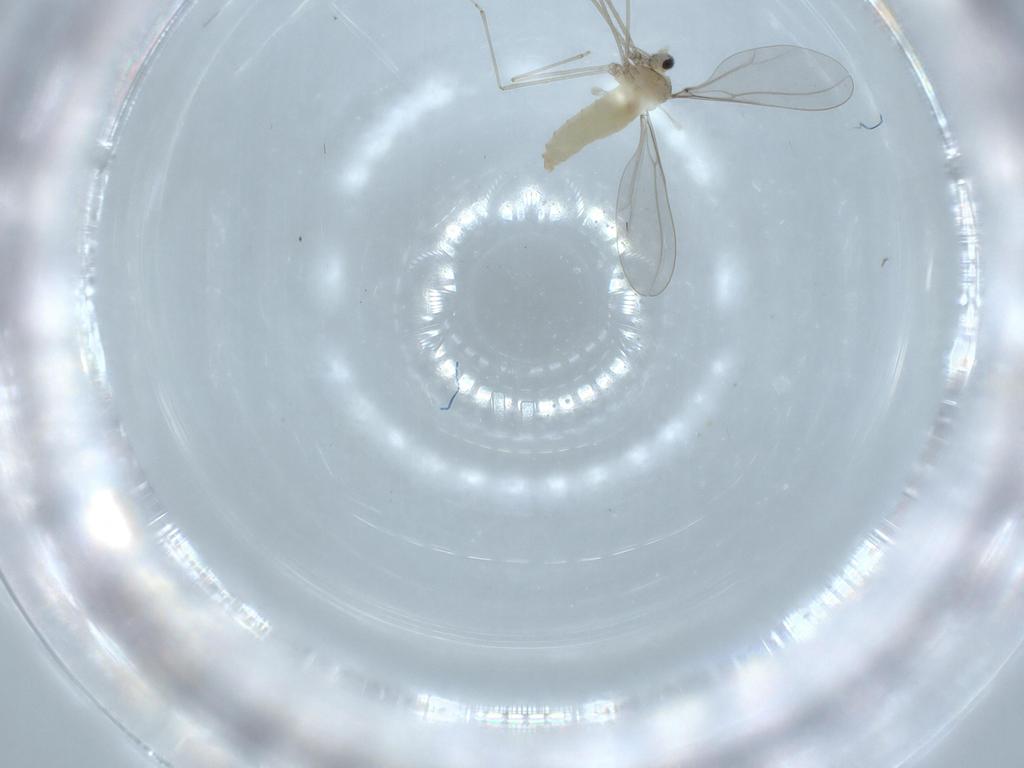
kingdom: Animalia
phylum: Arthropoda
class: Insecta
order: Diptera
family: Cecidomyiidae
